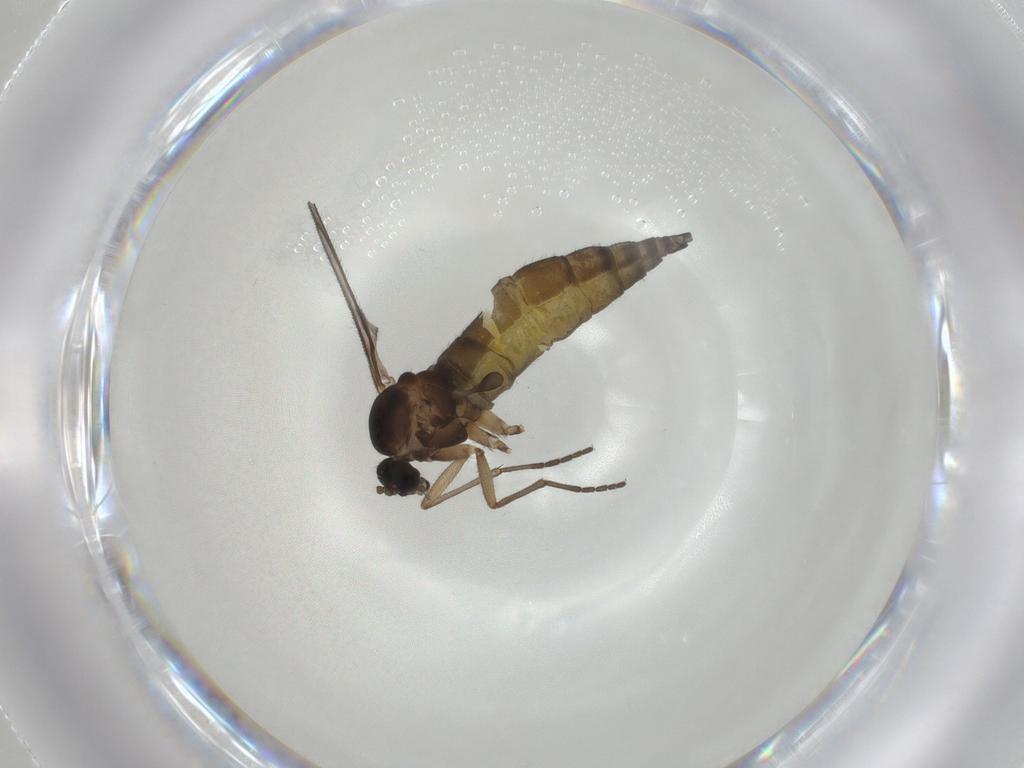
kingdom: Animalia
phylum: Arthropoda
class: Insecta
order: Diptera
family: Sciaridae
